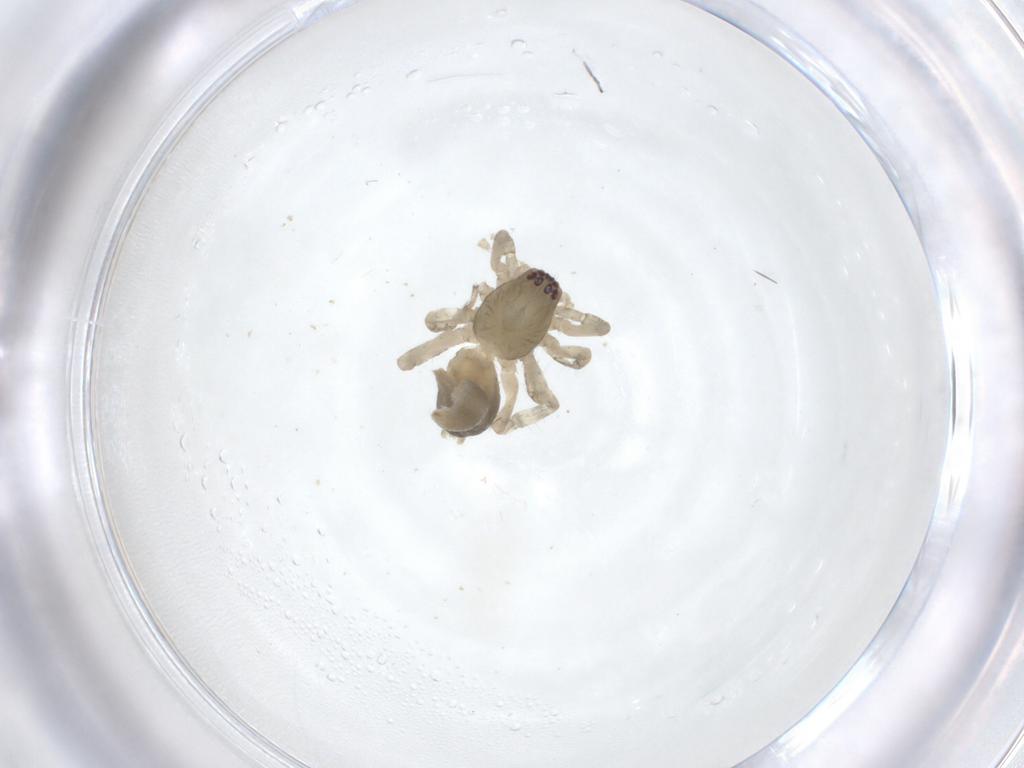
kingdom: Animalia
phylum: Arthropoda
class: Arachnida
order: Araneae
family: Anyphaenidae
